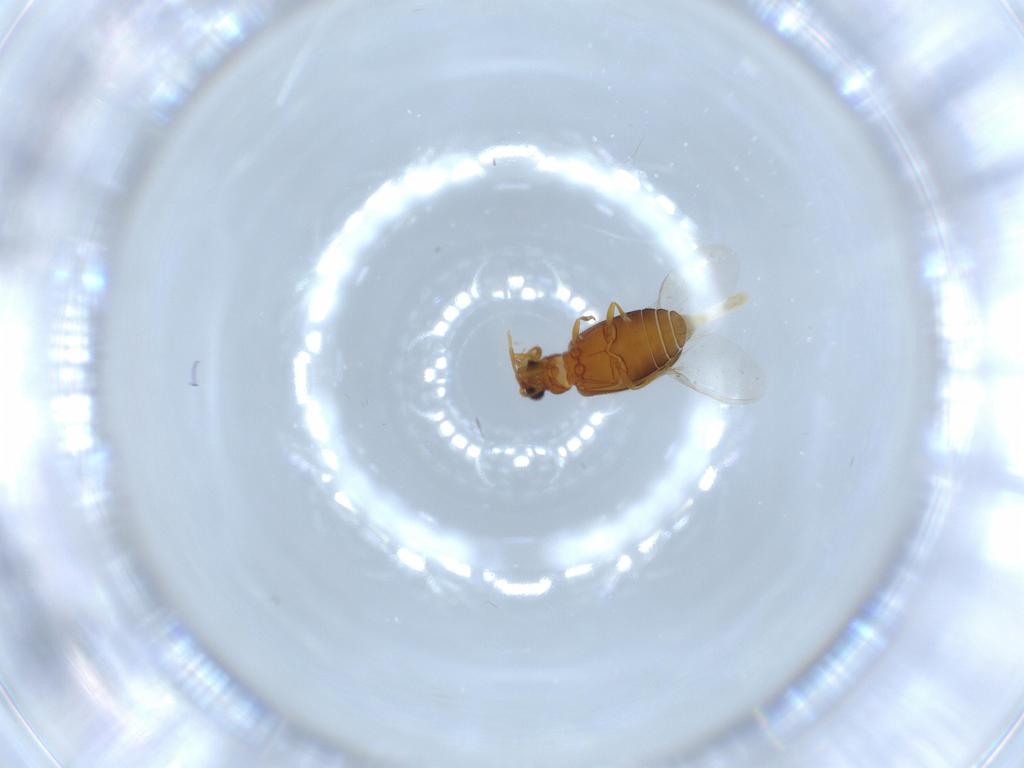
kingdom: Animalia
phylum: Arthropoda
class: Insecta
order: Coleoptera
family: Aderidae
